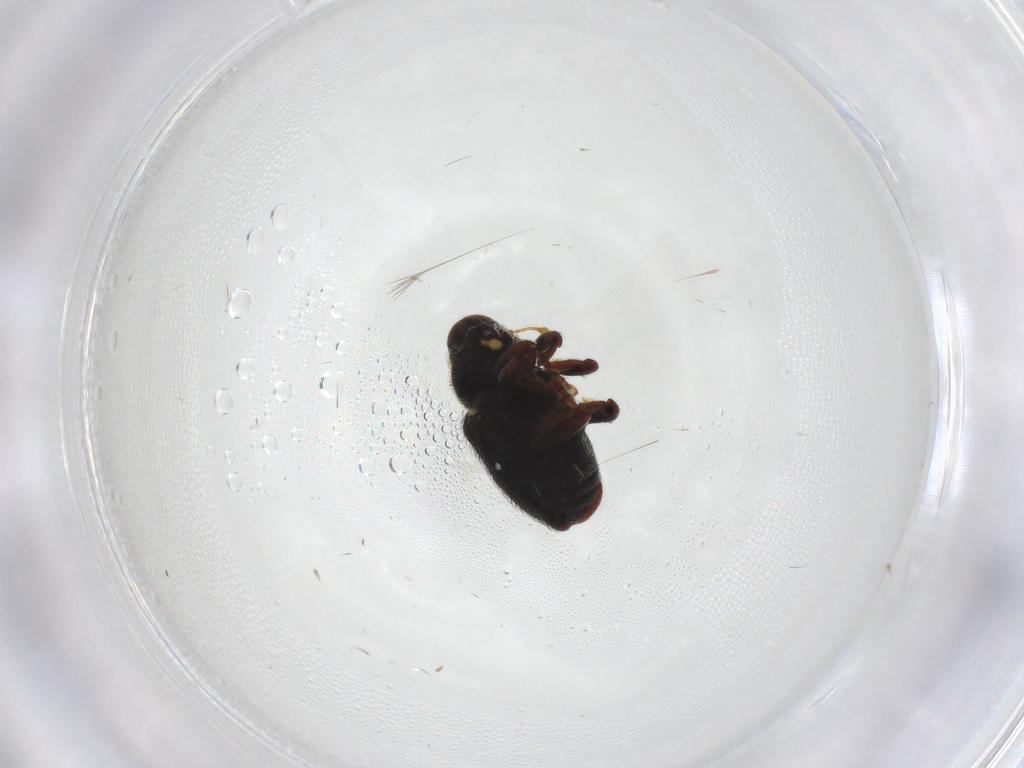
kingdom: Animalia
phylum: Arthropoda
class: Insecta
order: Coleoptera
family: Curculionidae
